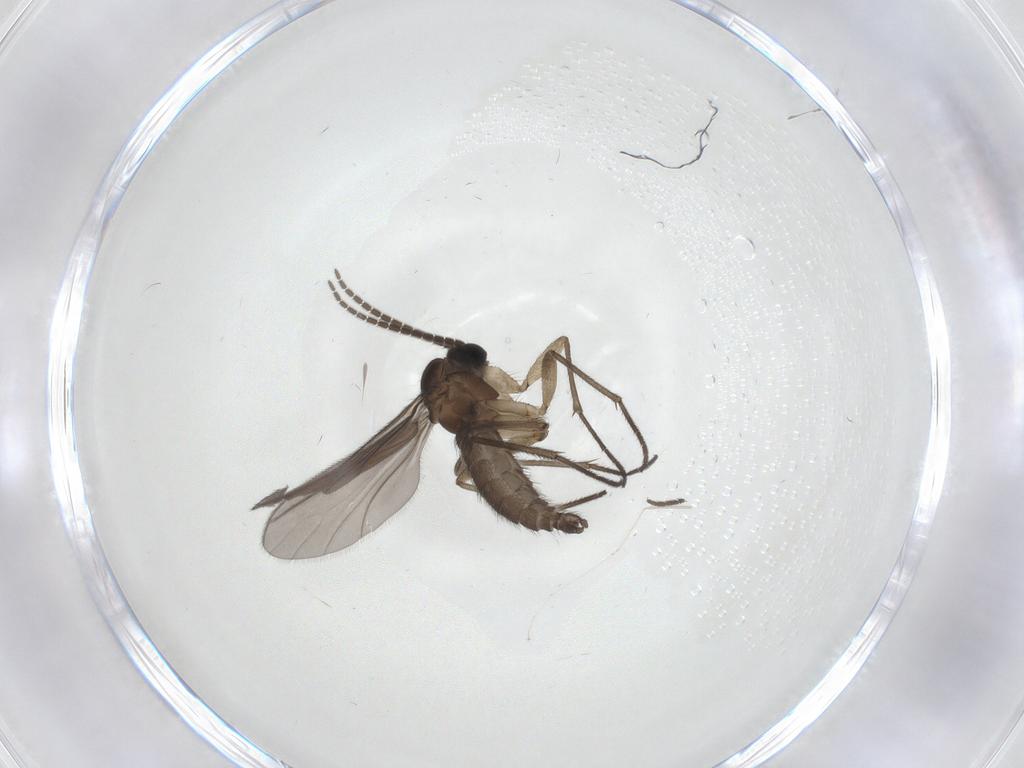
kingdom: Animalia
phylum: Arthropoda
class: Insecta
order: Diptera
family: Sciaridae
